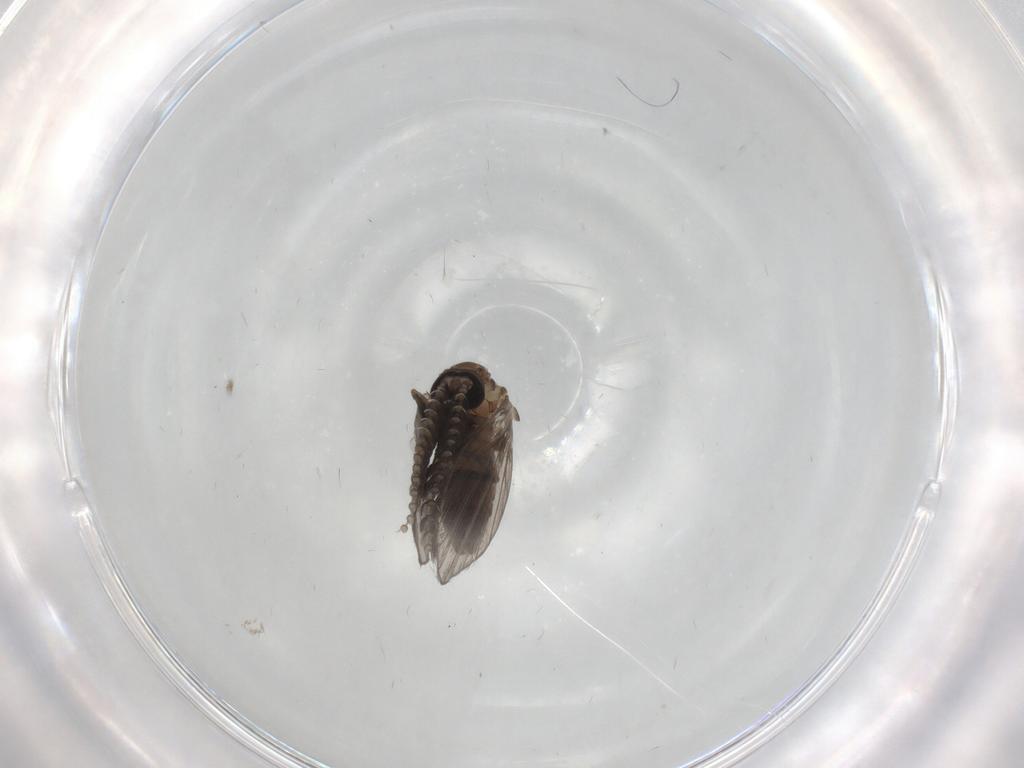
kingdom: Animalia
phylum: Arthropoda
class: Insecta
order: Diptera
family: Psychodidae
